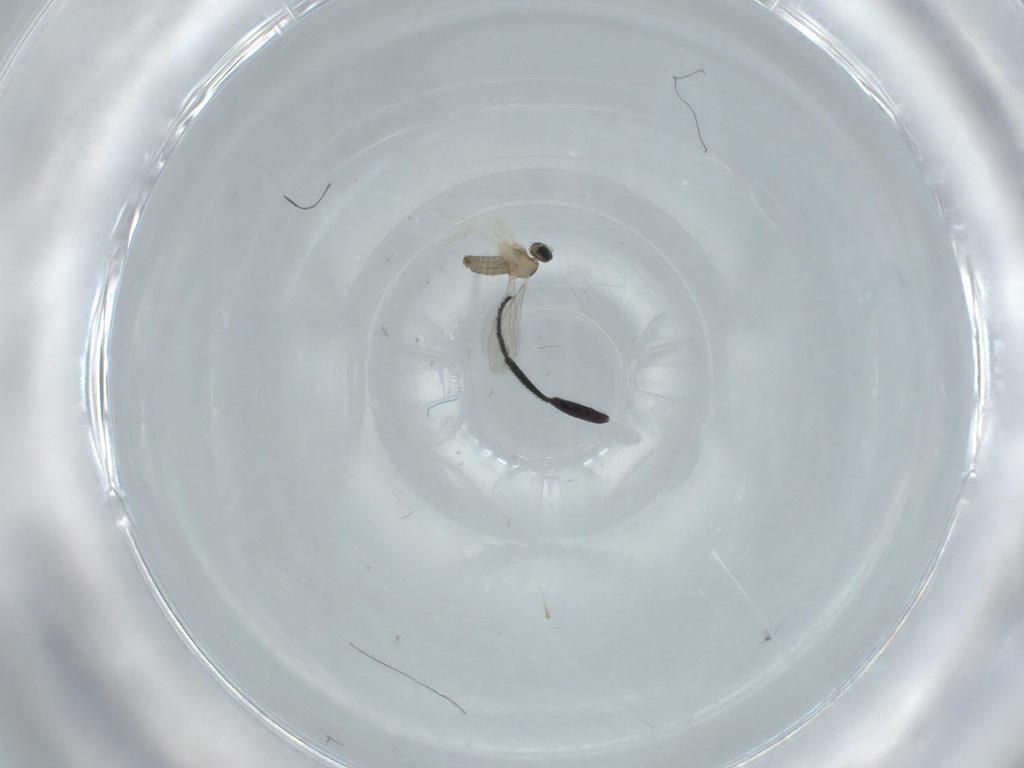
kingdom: Animalia
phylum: Arthropoda
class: Insecta
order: Diptera
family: Milichiidae
